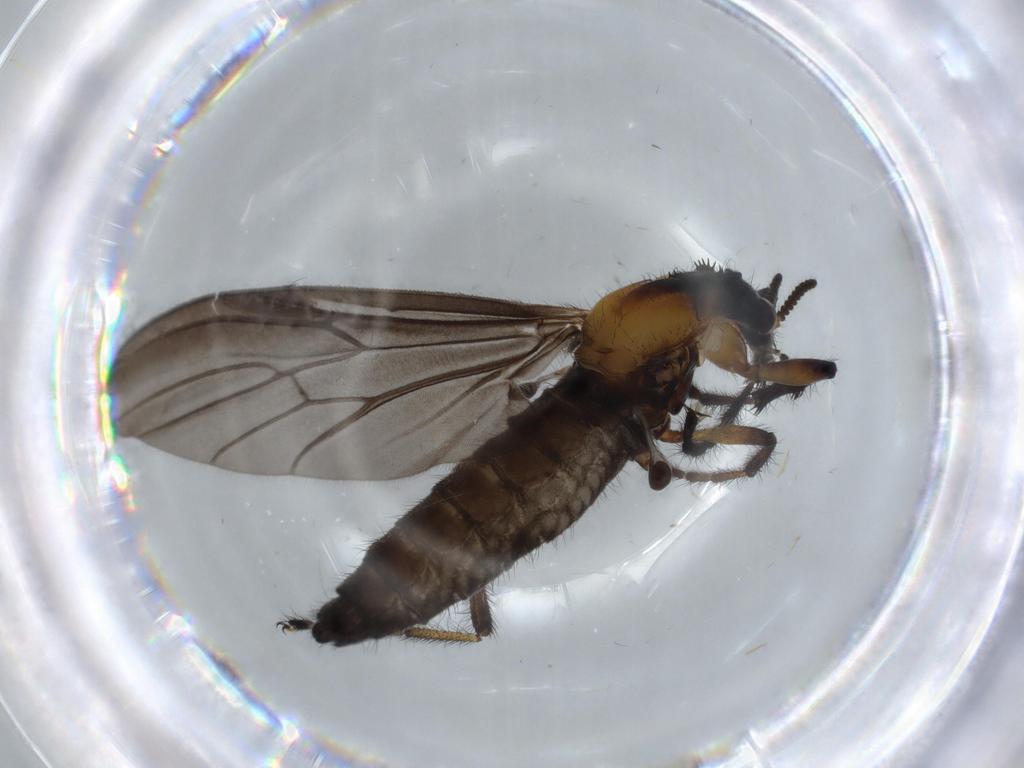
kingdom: Animalia
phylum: Arthropoda
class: Insecta
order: Diptera
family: Bibionidae
